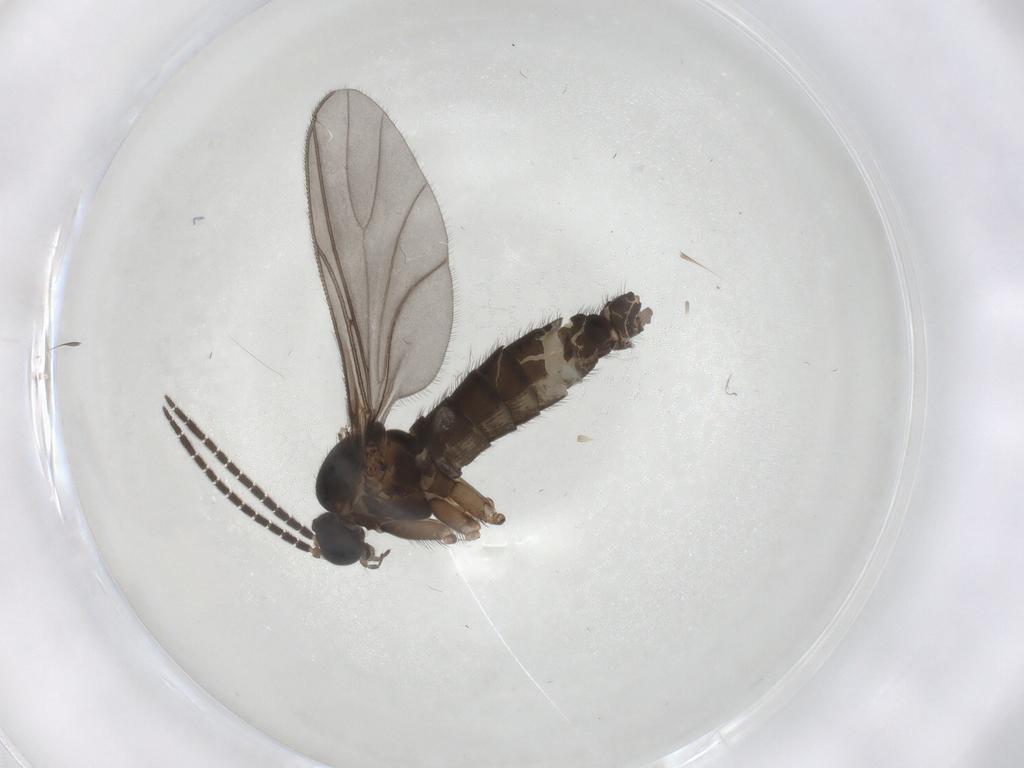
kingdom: Animalia
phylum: Arthropoda
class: Insecta
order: Diptera
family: Sciaridae
